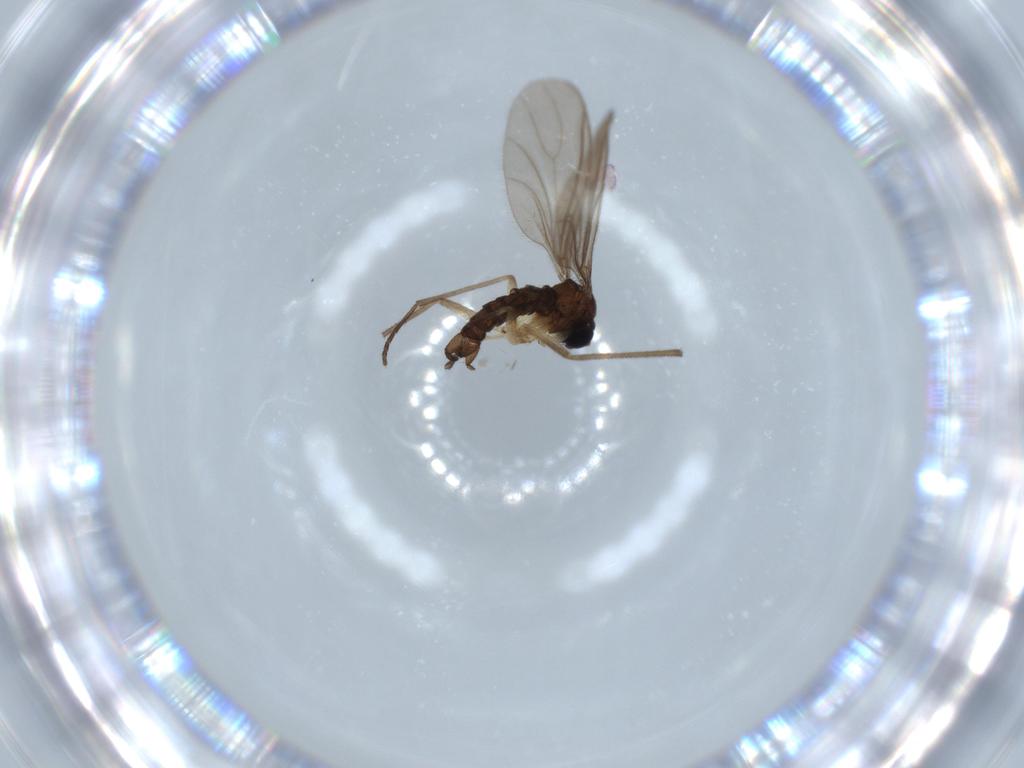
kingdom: Animalia
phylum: Arthropoda
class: Insecta
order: Diptera
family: Sciaridae
